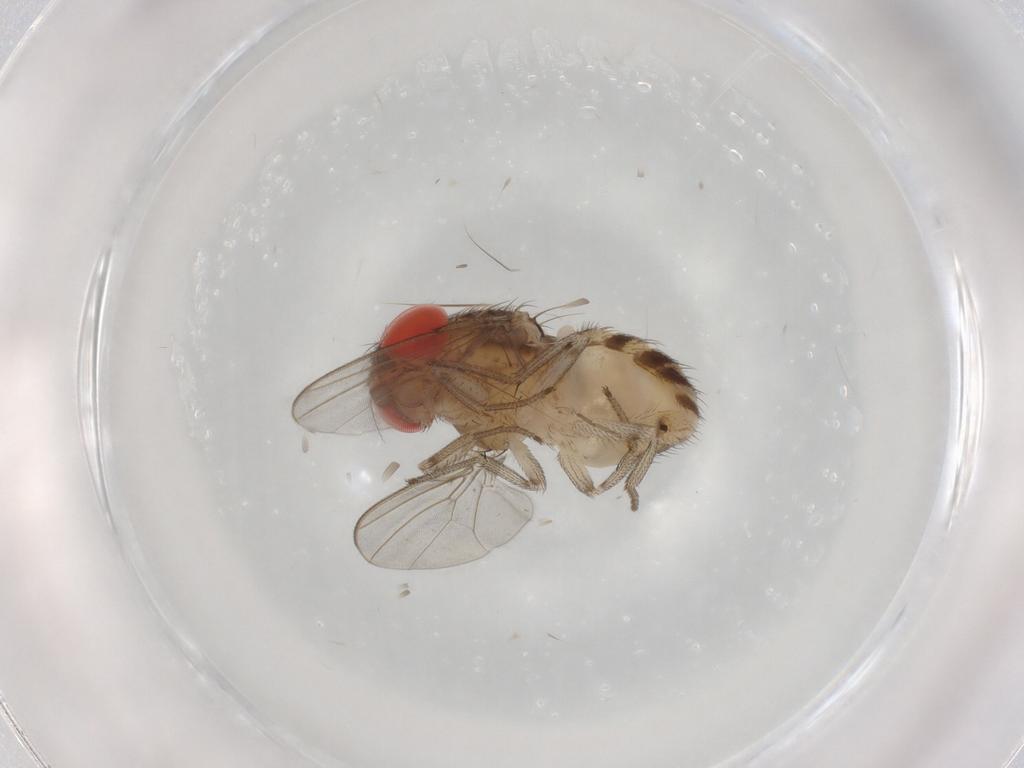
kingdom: Animalia
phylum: Arthropoda
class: Insecta
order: Diptera
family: Drosophilidae
